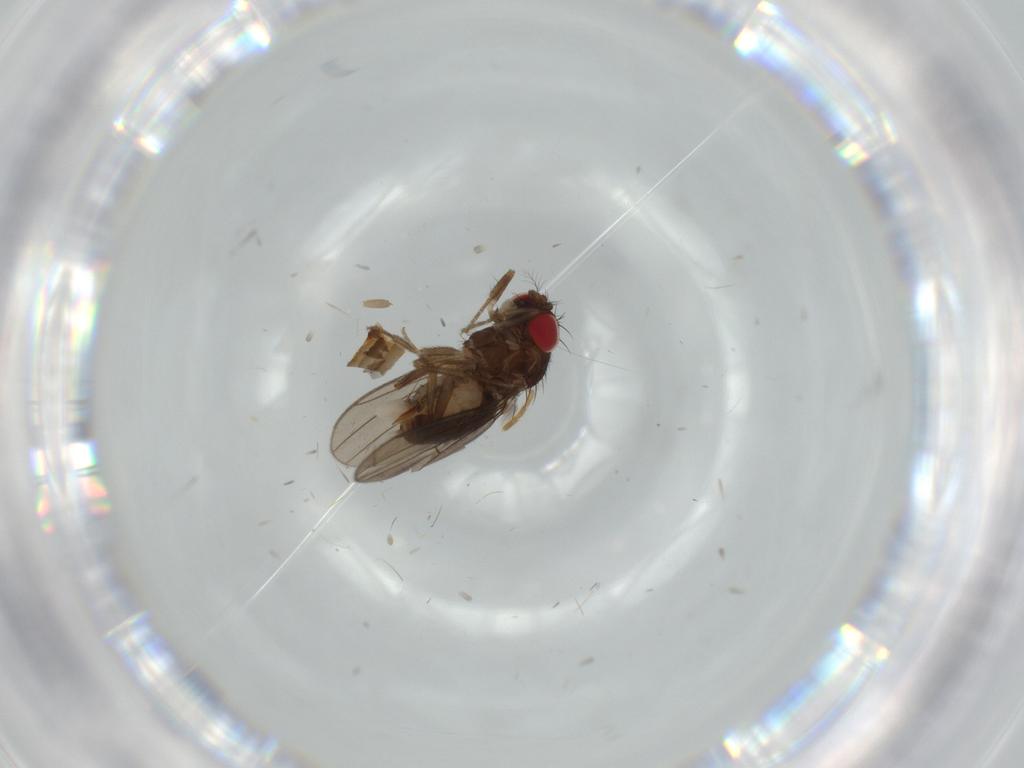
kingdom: Animalia
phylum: Arthropoda
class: Insecta
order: Diptera
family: Drosophilidae
